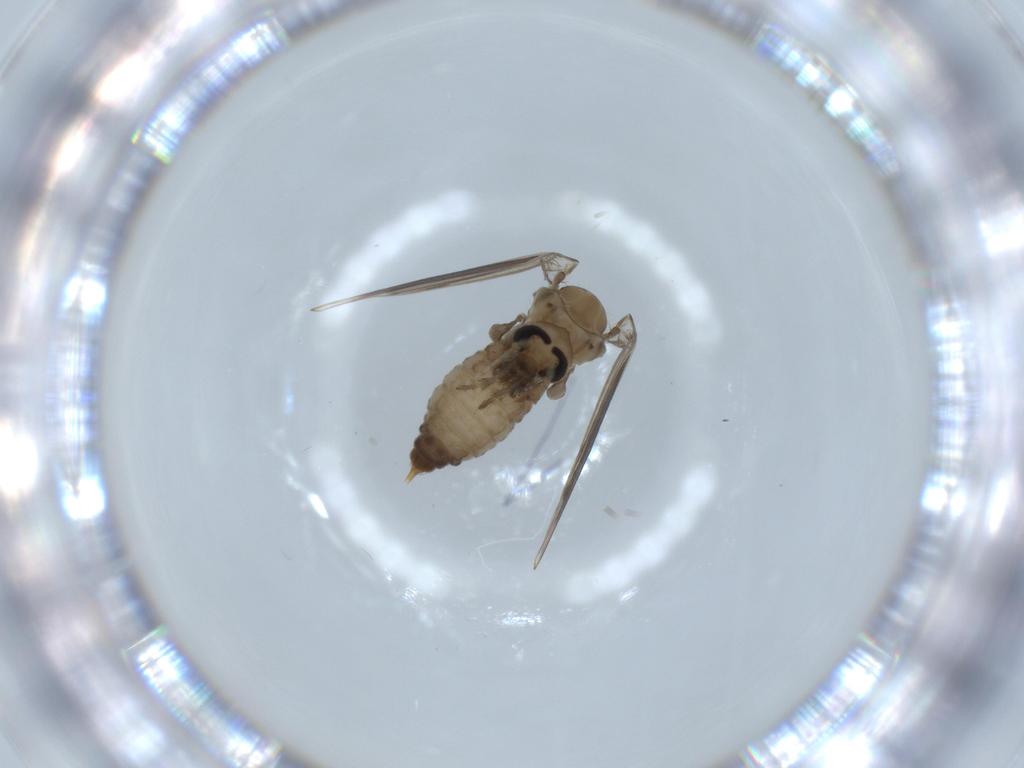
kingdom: Animalia
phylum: Arthropoda
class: Insecta
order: Diptera
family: Psychodidae
